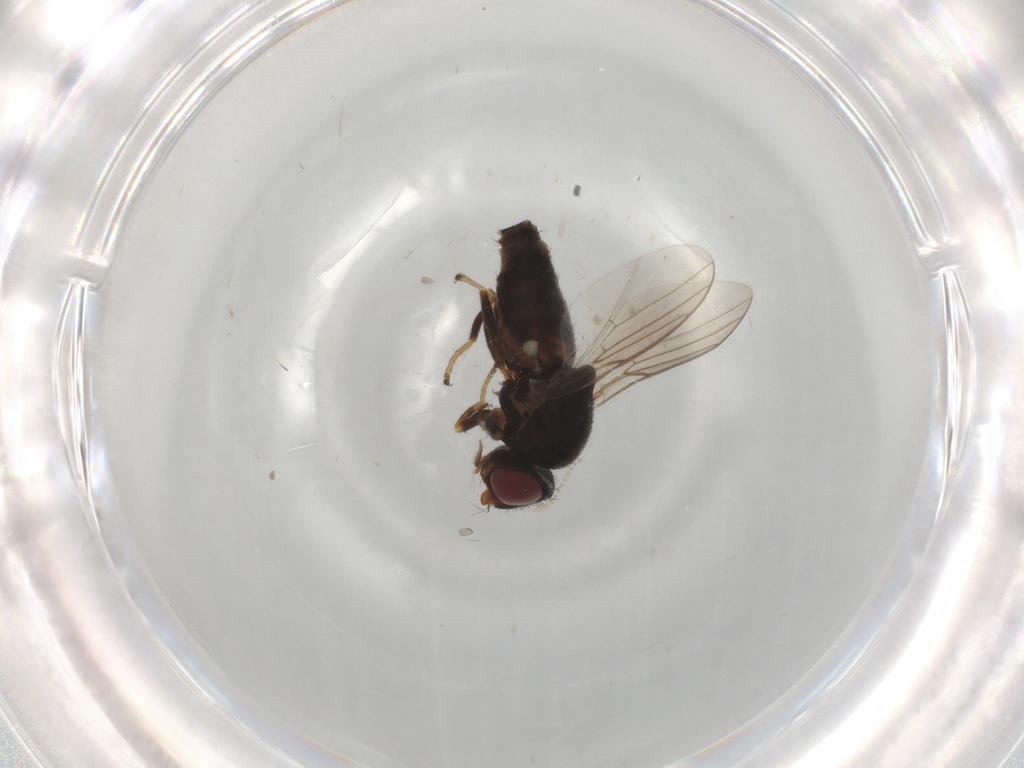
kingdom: Animalia
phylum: Arthropoda
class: Insecta
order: Diptera
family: Chloropidae
